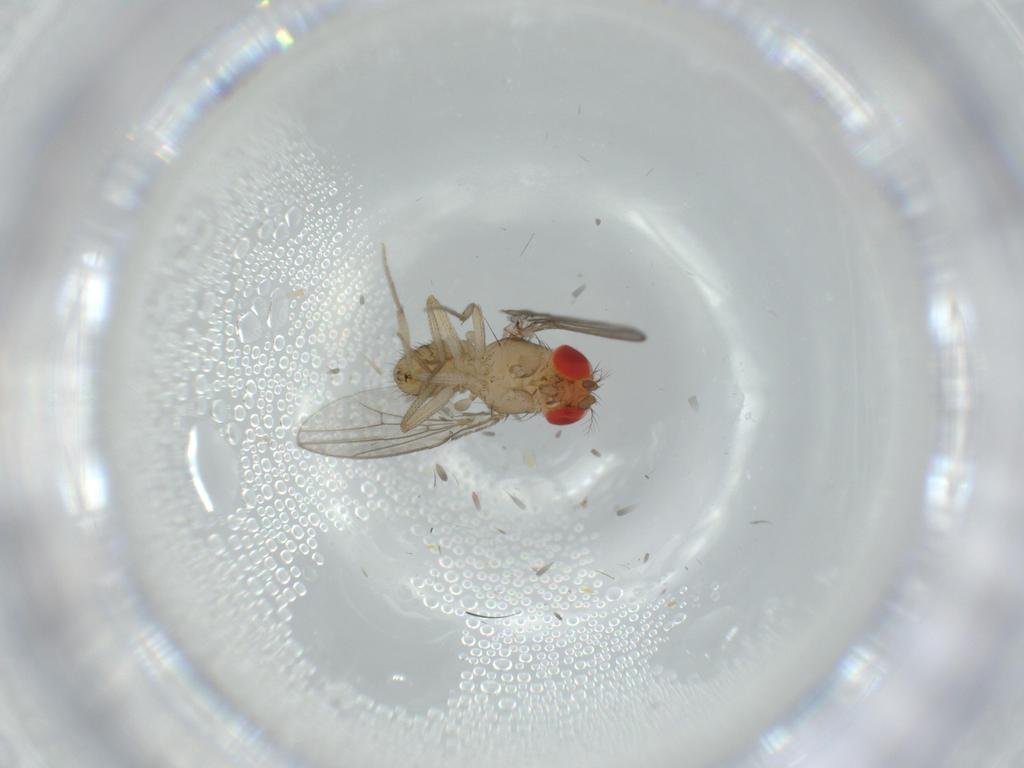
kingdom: Animalia
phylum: Arthropoda
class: Insecta
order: Diptera
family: Drosophilidae
